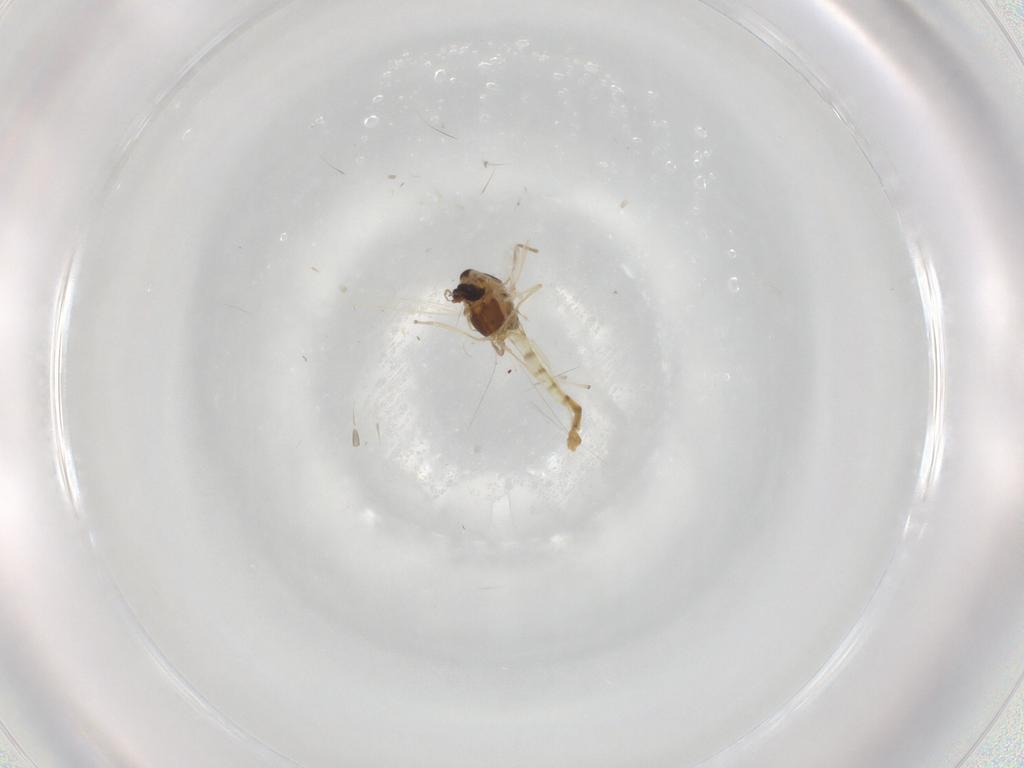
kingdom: Animalia
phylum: Arthropoda
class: Insecta
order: Diptera
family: Chironomidae
